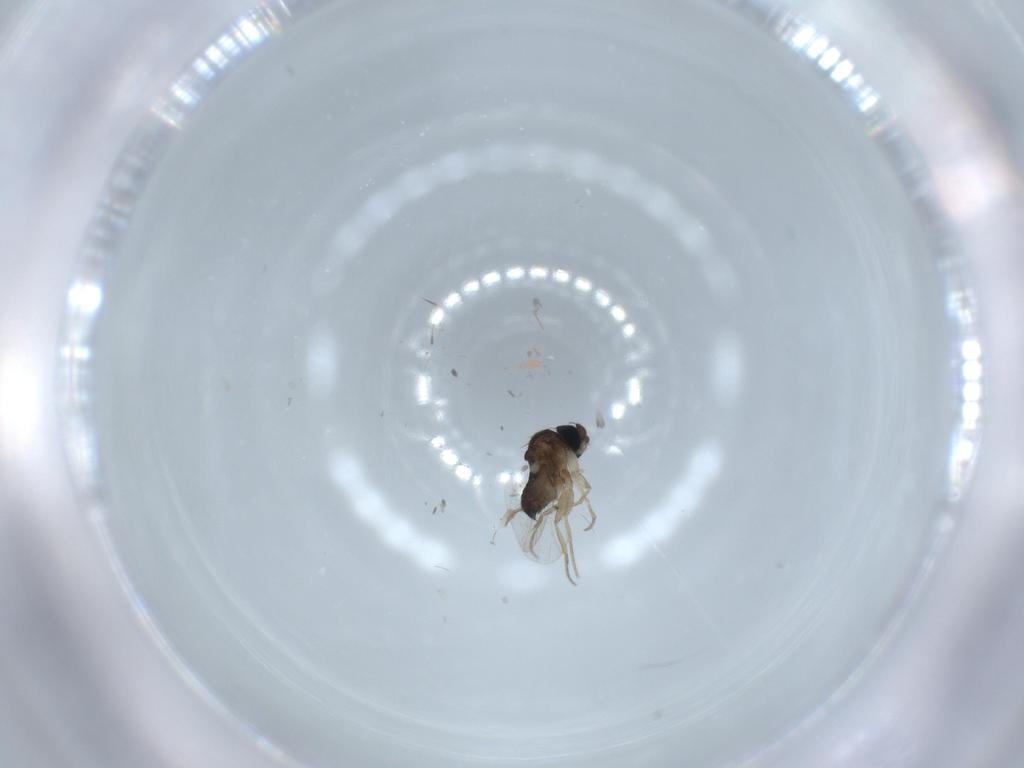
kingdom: Animalia
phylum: Arthropoda
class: Insecta
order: Diptera
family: Phoridae
